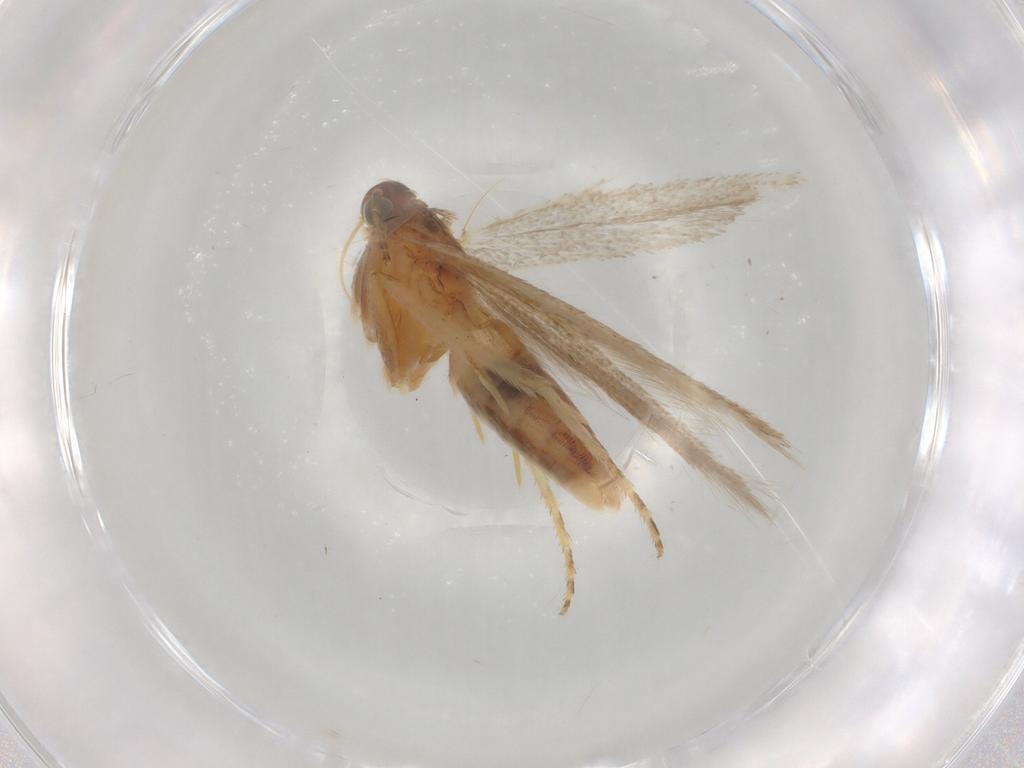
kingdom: Animalia
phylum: Arthropoda
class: Insecta
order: Lepidoptera
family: Gelechiidae
